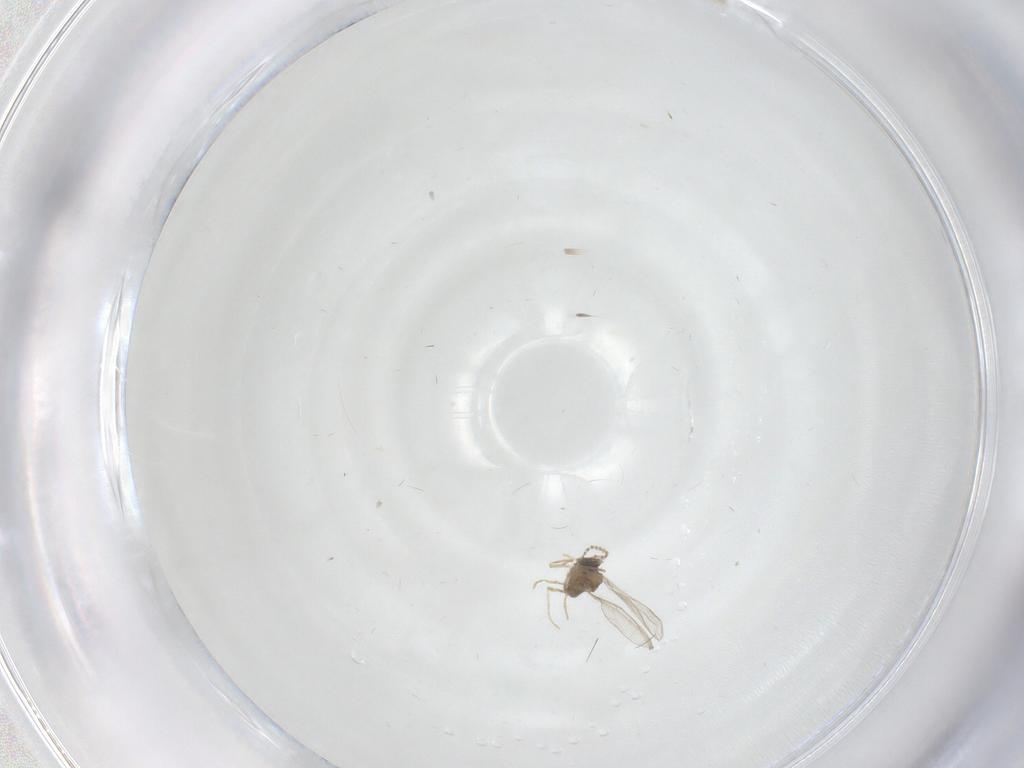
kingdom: Animalia
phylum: Arthropoda
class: Insecta
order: Diptera
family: Cecidomyiidae
